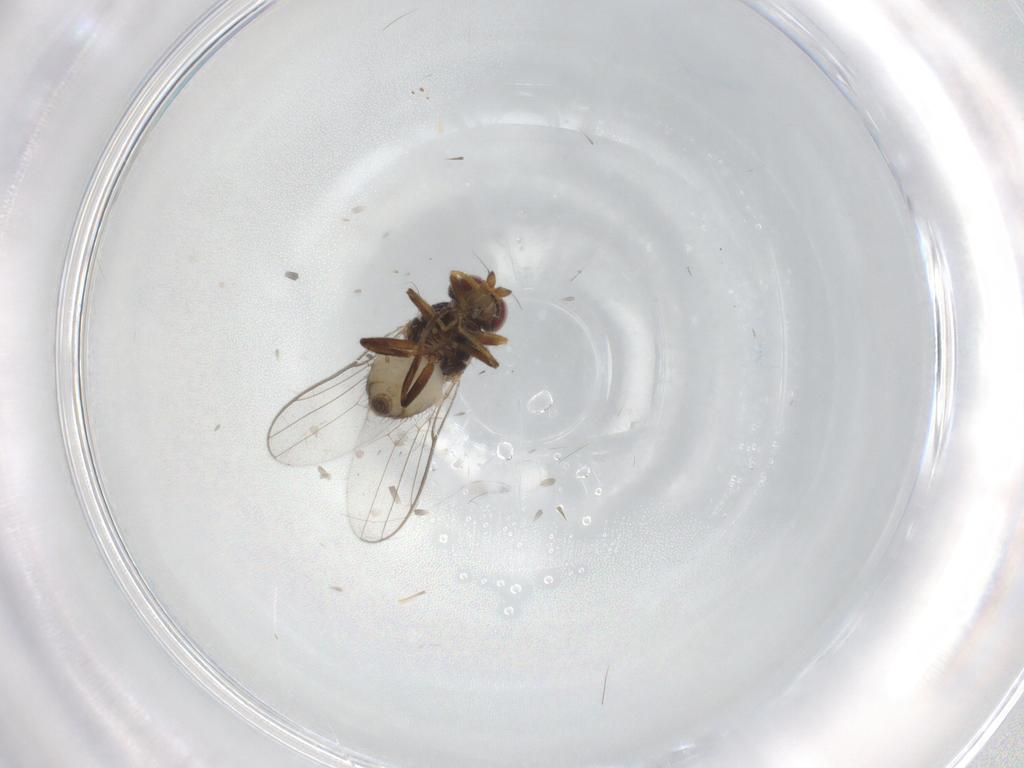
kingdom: Animalia
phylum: Arthropoda
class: Insecta
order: Diptera
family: Chloropidae
